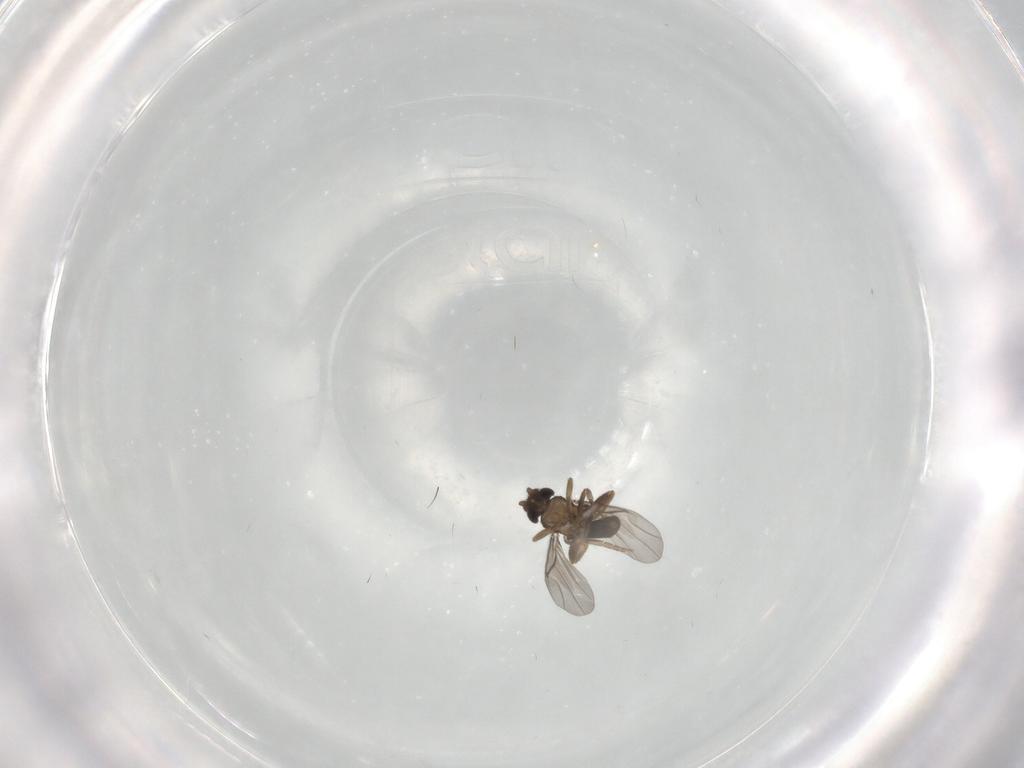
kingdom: Animalia
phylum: Arthropoda
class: Insecta
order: Diptera
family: Chironomidae
